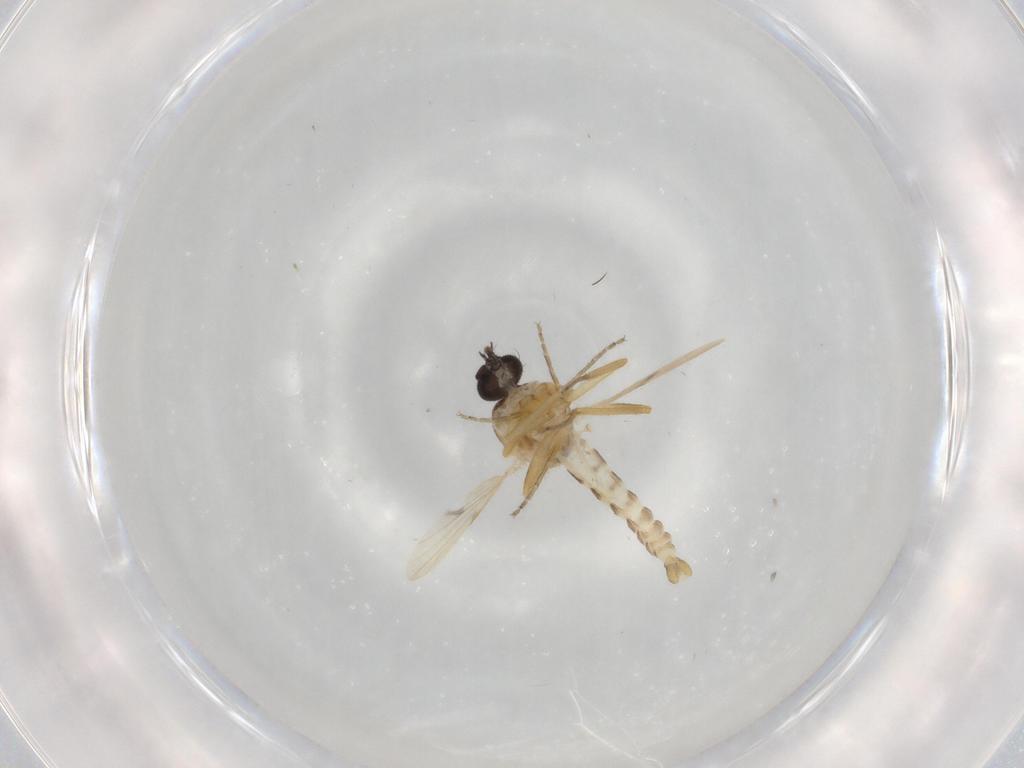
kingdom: Animalia
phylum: Arthropoda
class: Insecta
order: Diptera
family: Ceratopogonidae
